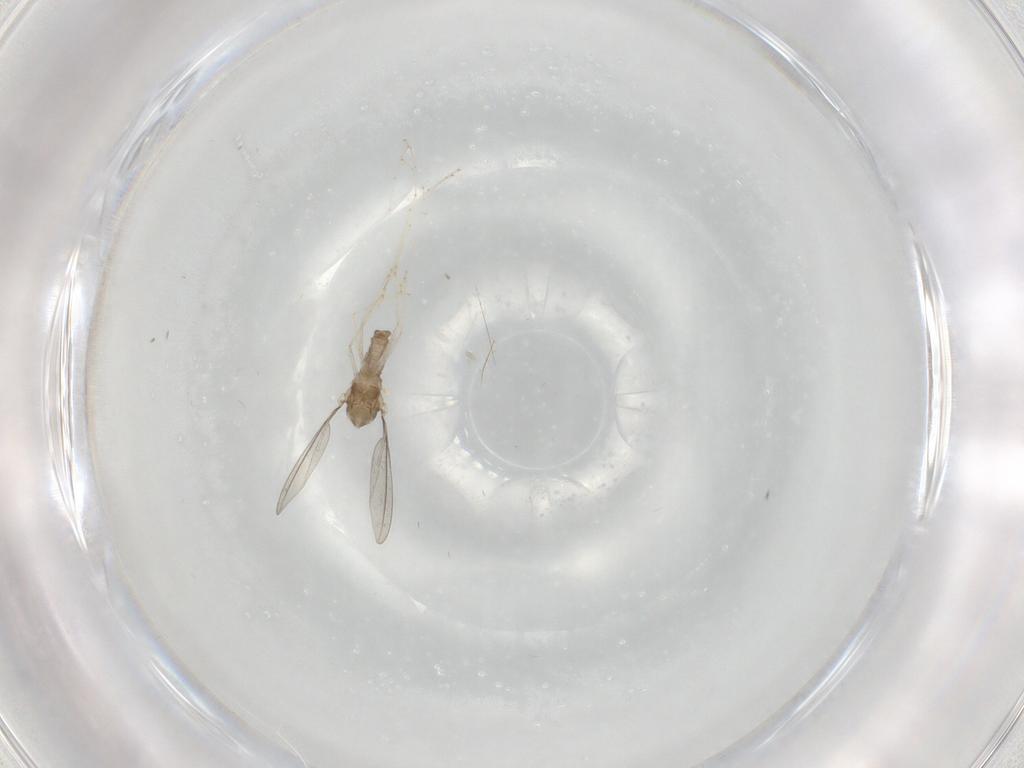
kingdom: Animalia
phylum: Arthropoda
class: Insecta
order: Diptera
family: Cecidomyiidae
